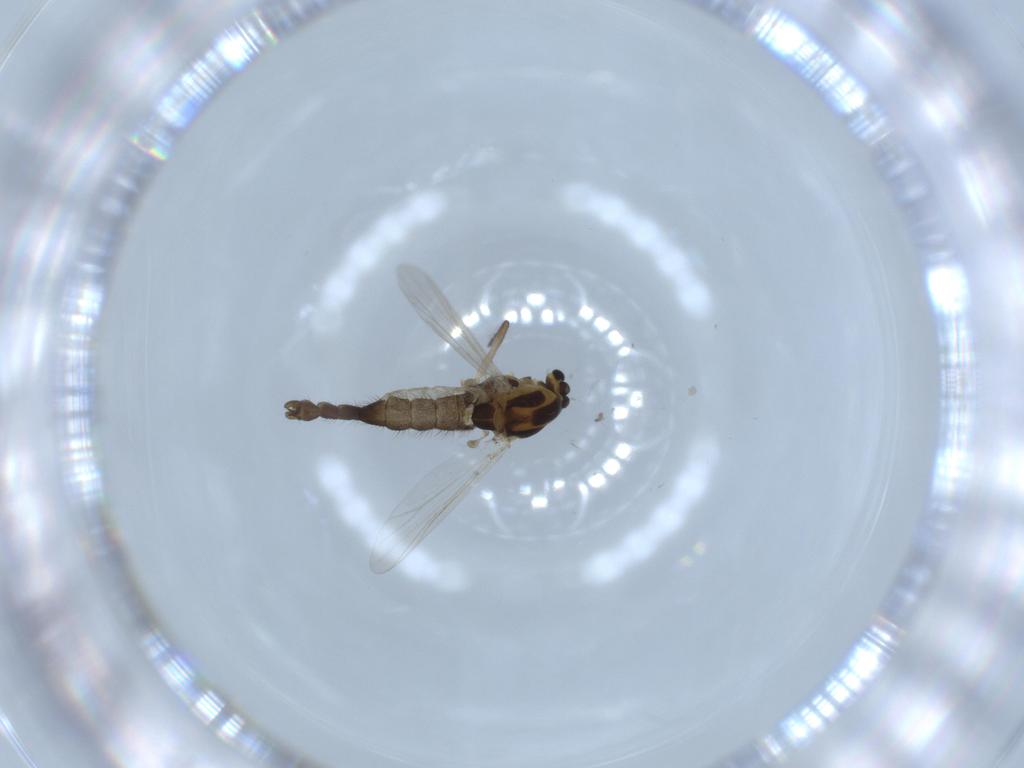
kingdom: Animalia
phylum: Arthropoda
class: Insecta
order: Diptera
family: Chironomidae
